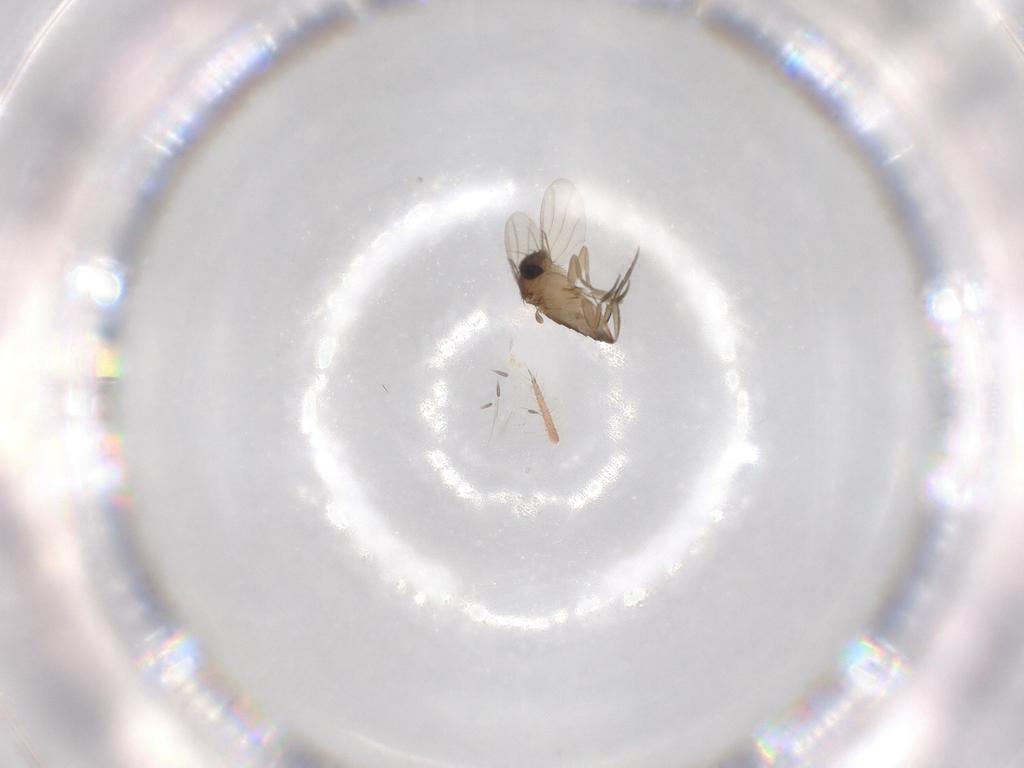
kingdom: Animalia
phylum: Arthropoda
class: Insecta
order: Diptera
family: Phoridae
